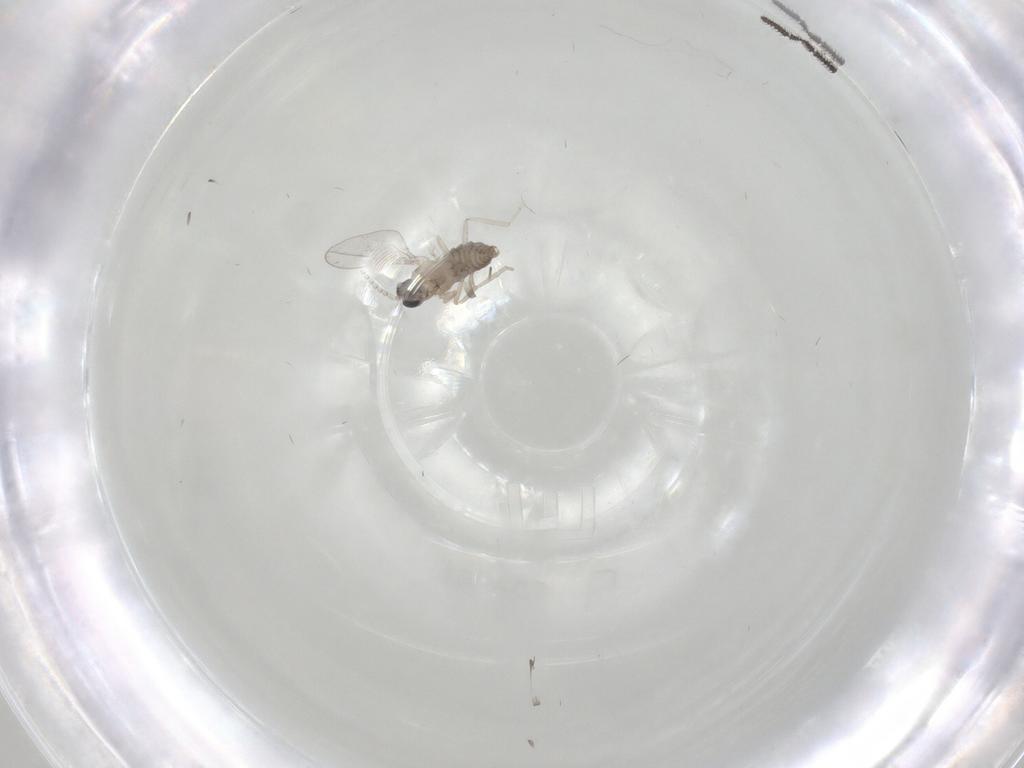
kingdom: Animalia
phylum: Arthropoda
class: Insecta
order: Diptera
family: Cecidomyiidae
